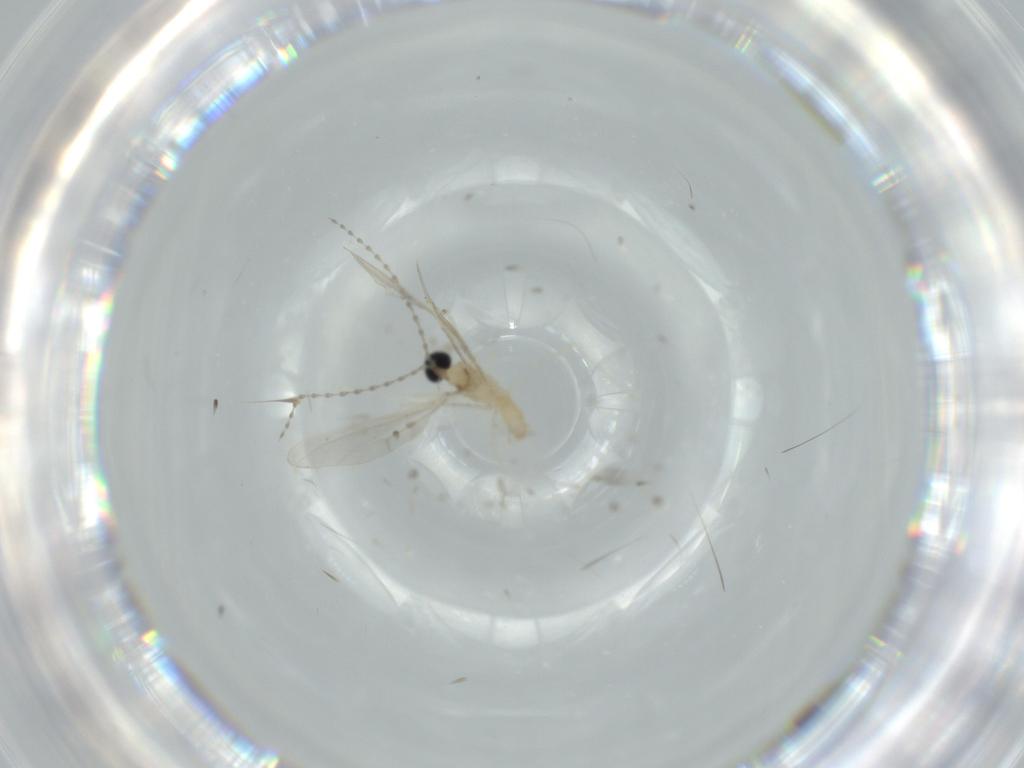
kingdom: Animalia
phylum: Arthropoda
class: Insecta
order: Diptera
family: Cecidomyiidae
